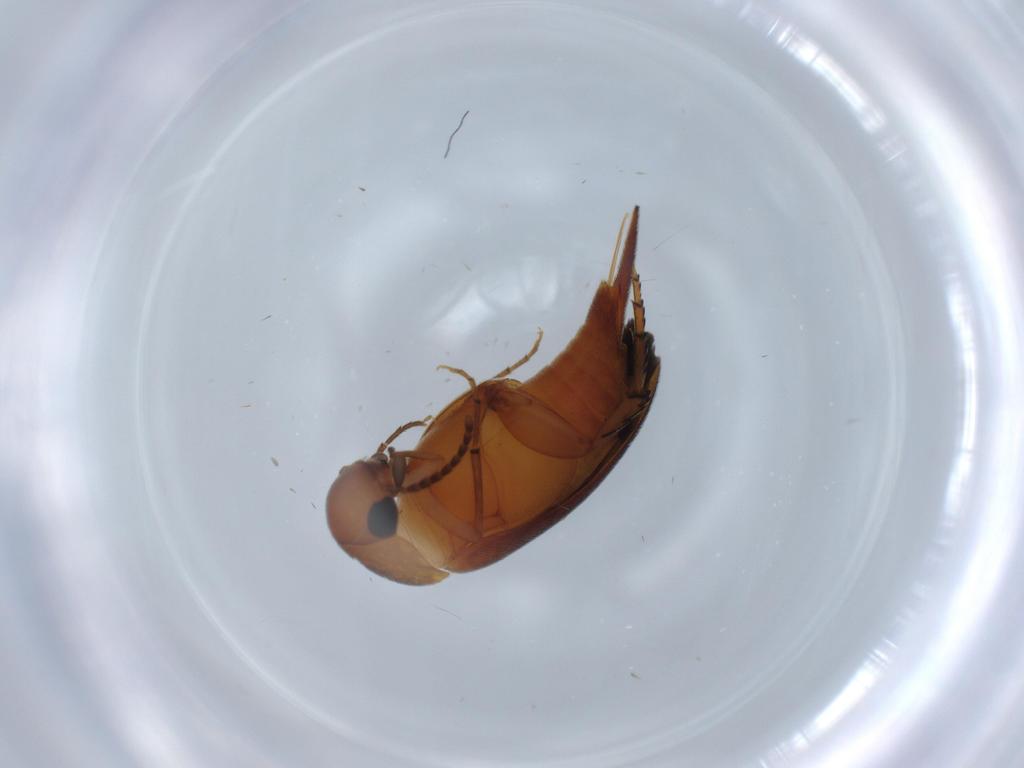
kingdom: Animalia
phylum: Arthropoda
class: Insecta
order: Coleoptera
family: Mordellidae
